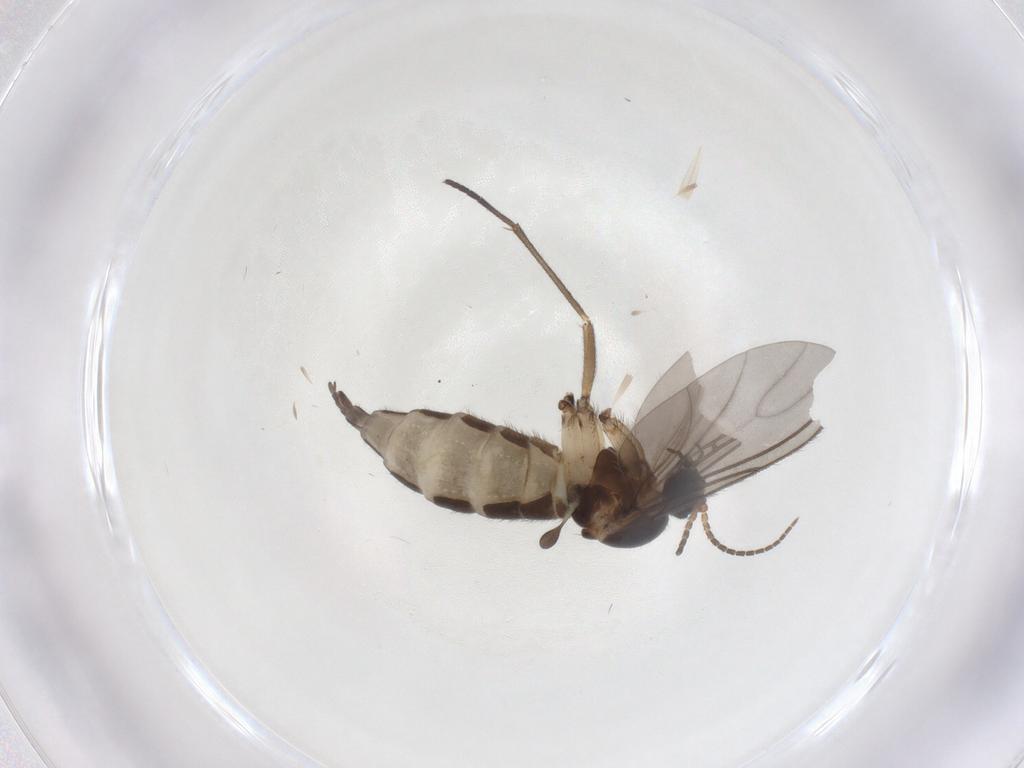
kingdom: Animalia
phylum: Arthropoda
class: Insecta
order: Diptera
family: Sciaridae
